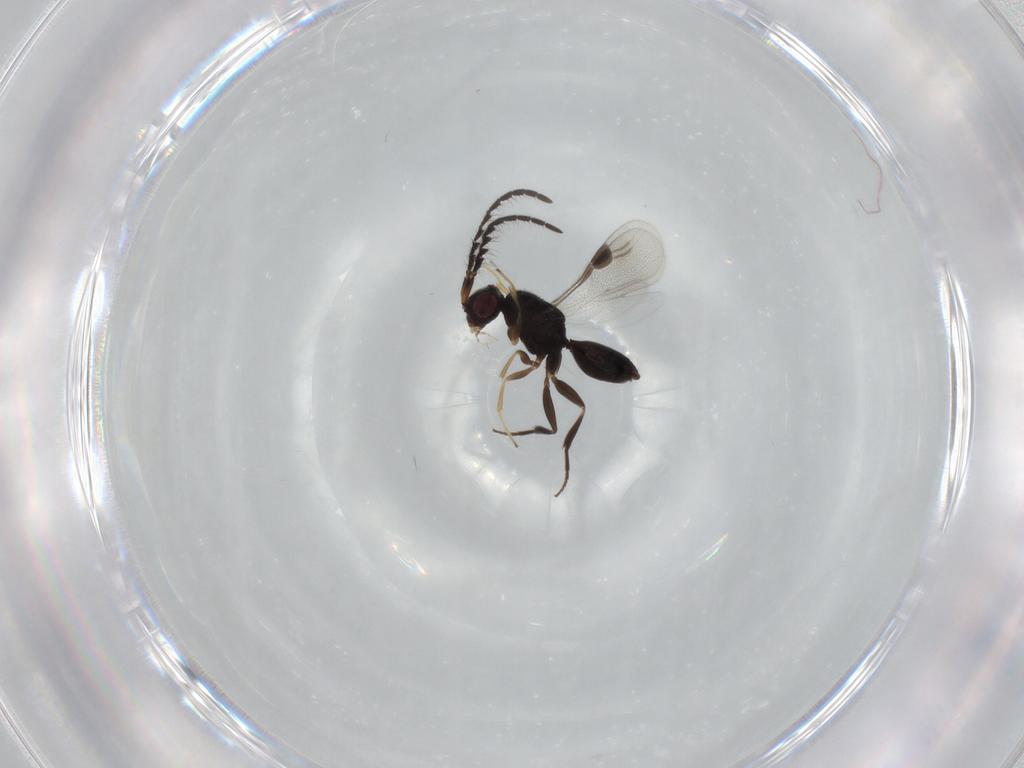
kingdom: Animalia
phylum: Arthropoda
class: Insecta
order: Hymenoptera
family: Megaspilidae
